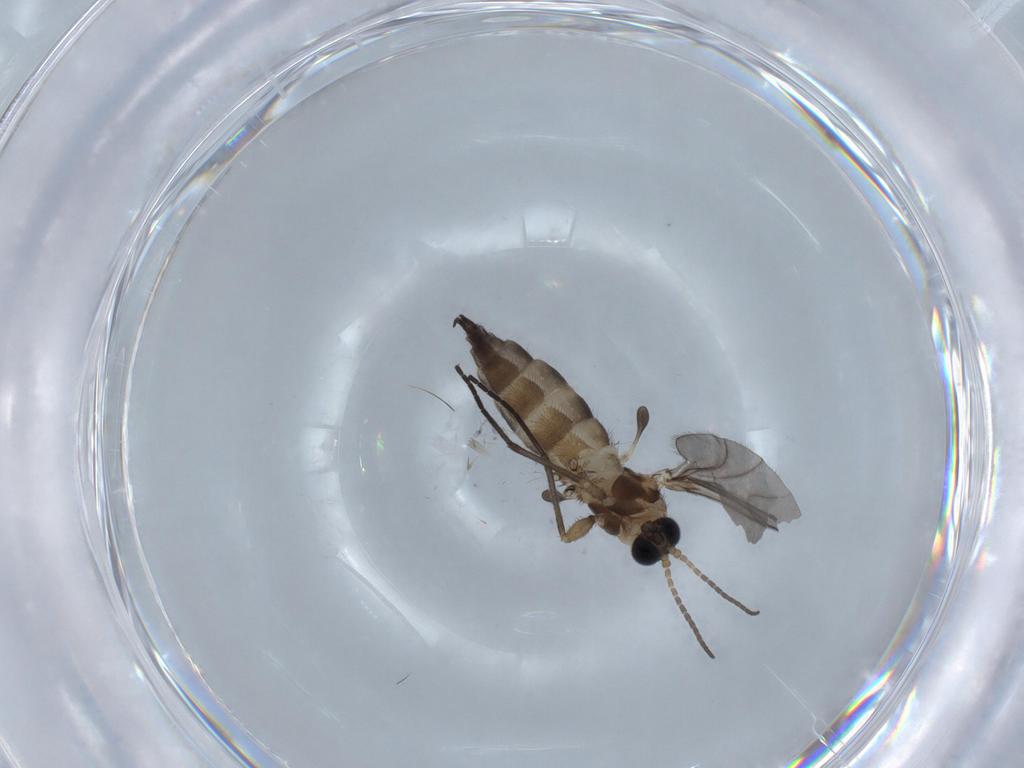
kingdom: Animalia
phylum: Arthropoda
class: Insecta
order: Diptera
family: Sciaridae
